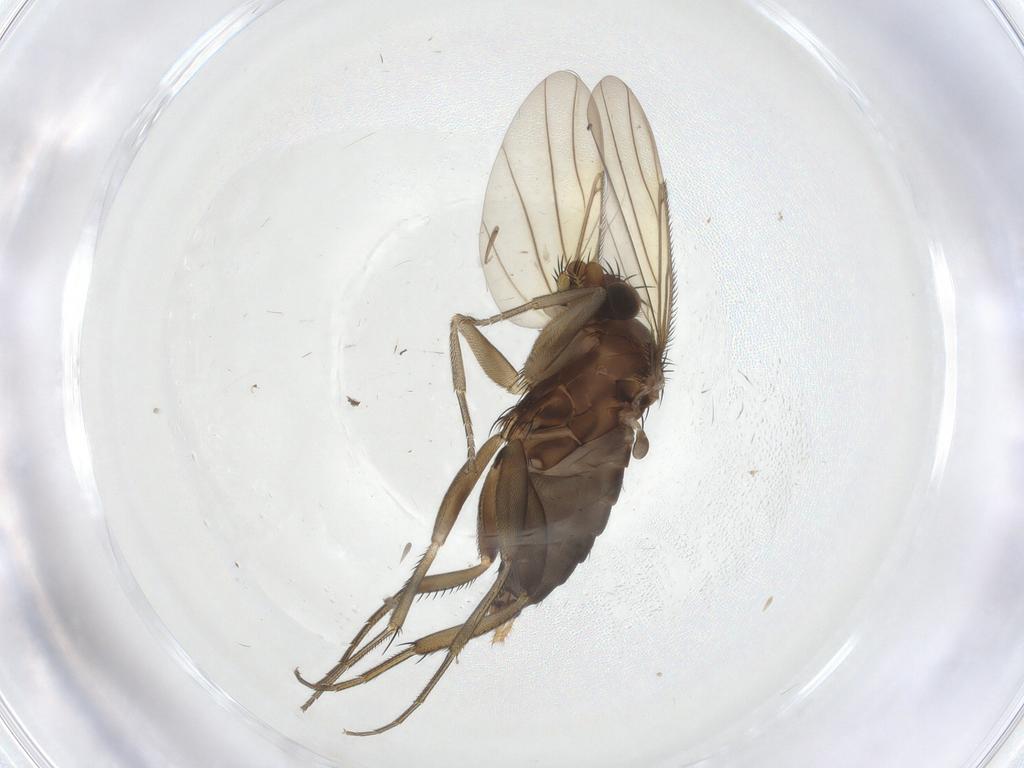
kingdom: Animalia
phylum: Arthropoda
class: Insecta
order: Diptera
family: Phoridae
